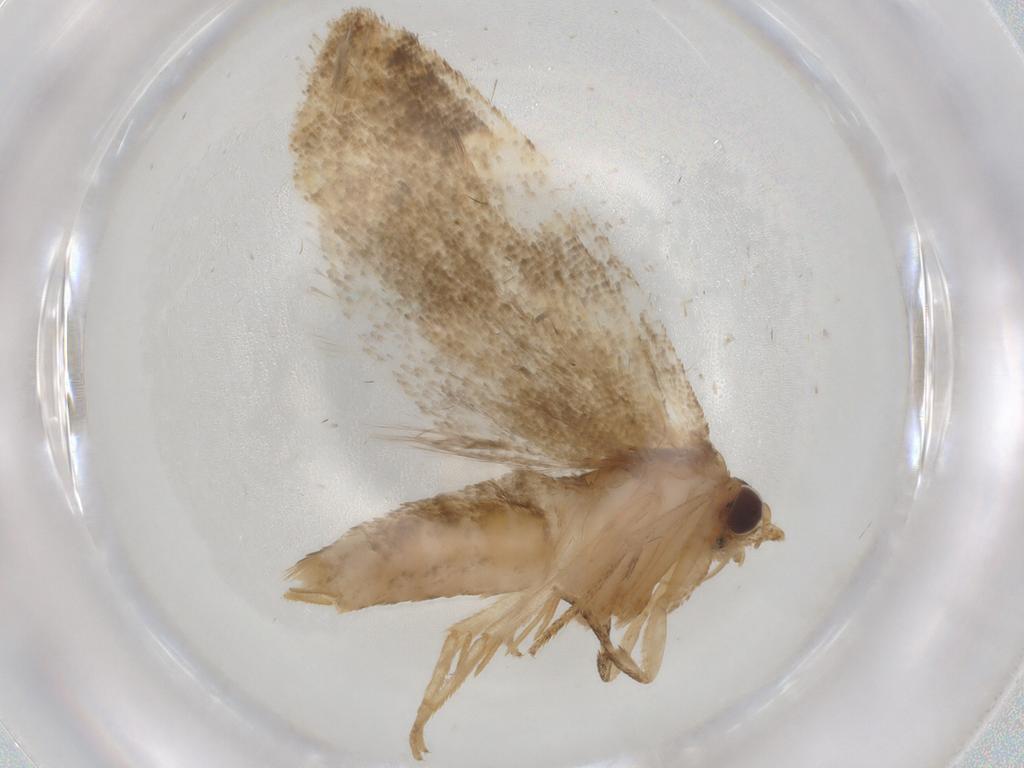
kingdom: Animalia
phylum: Arthropoda
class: Insecta
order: Lepidoptera
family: Tortricidae
